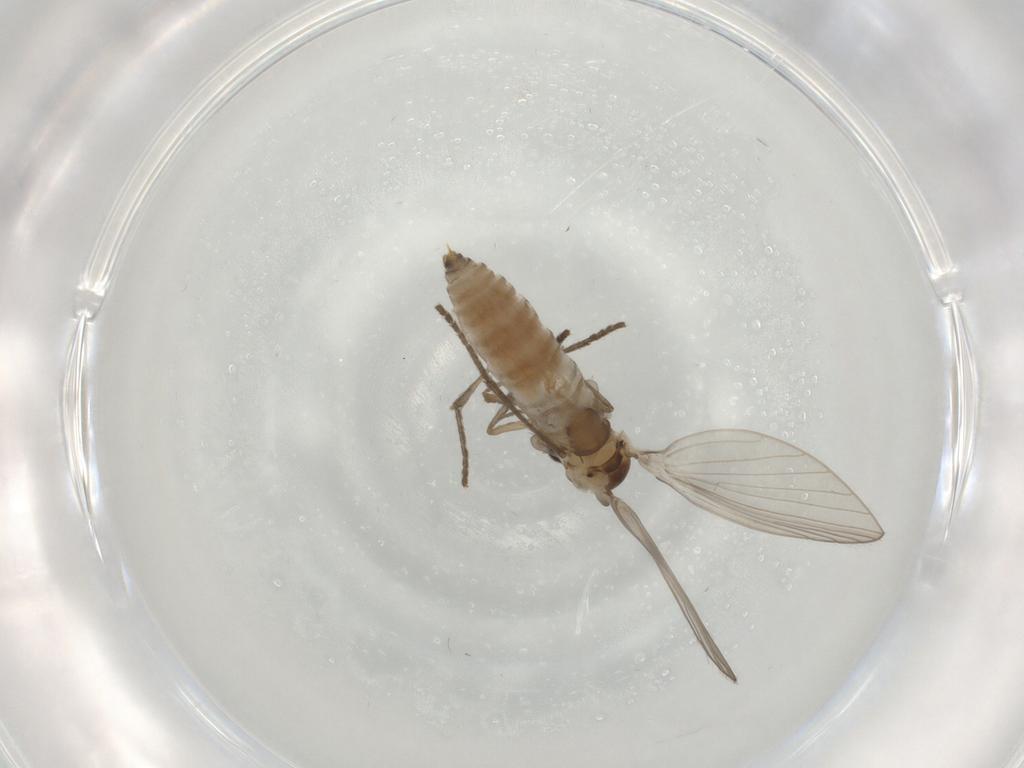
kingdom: Animalia
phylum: Arthropoda
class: Insecta
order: Diptera
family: Psychodidae
